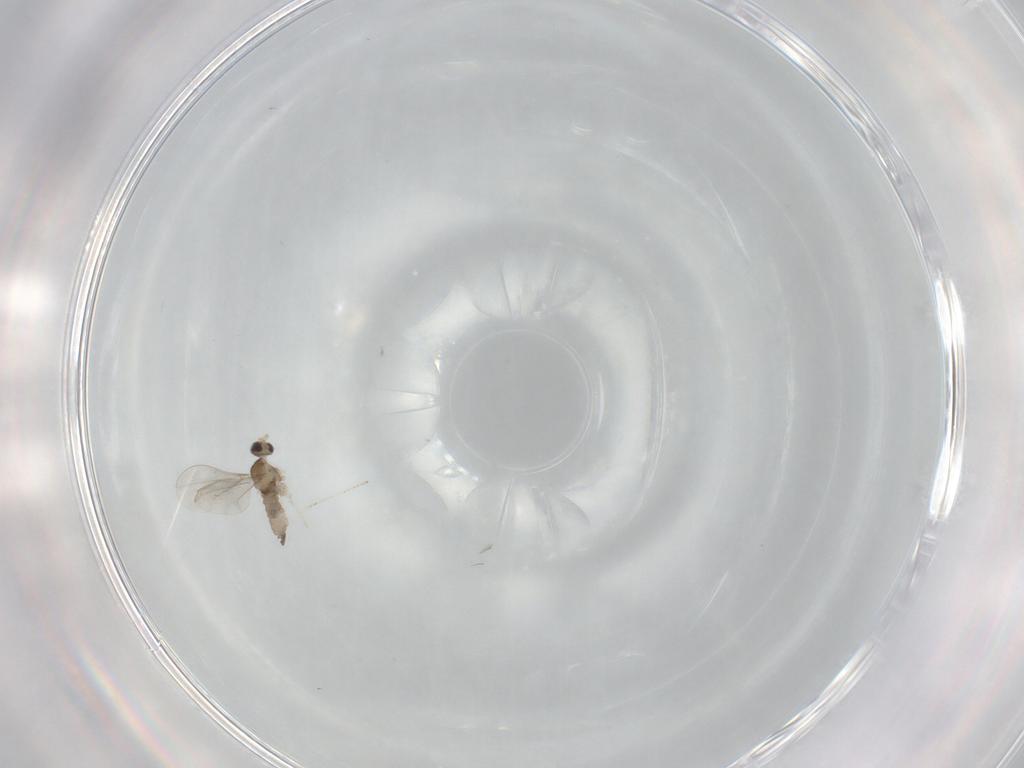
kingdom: Animalia
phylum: Arthropoda
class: Insecta
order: Diptera
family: Cecidomyiidae
